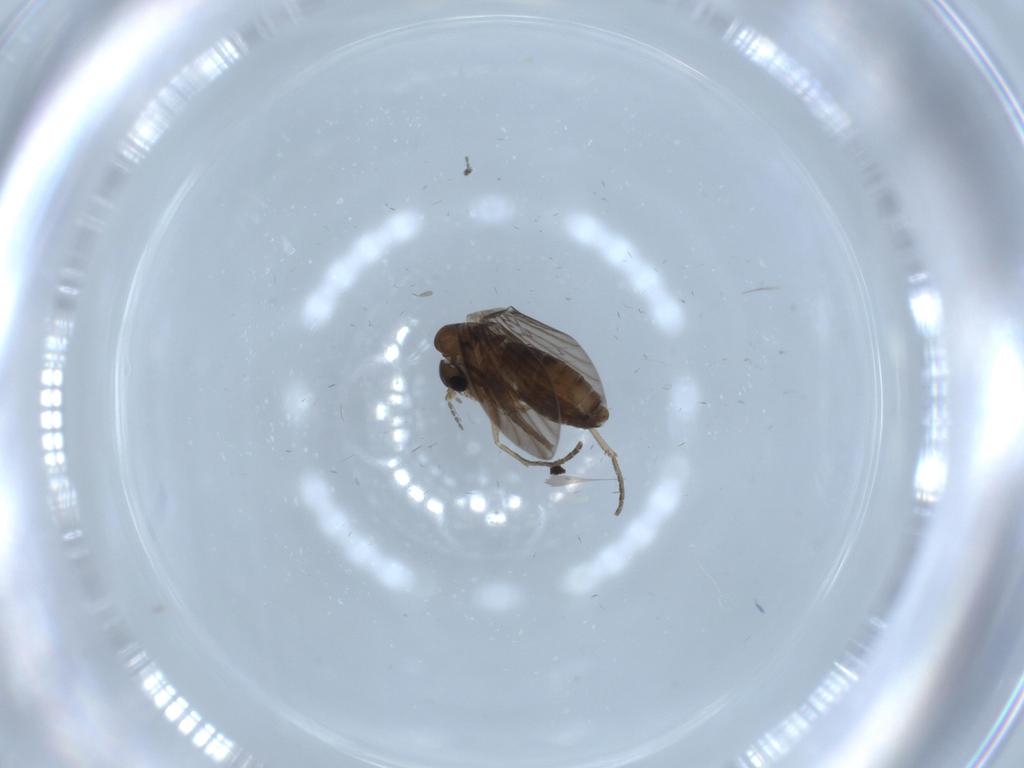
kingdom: Animalia
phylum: Arthropoda
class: Insecta
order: Diptera
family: Psychodidae
